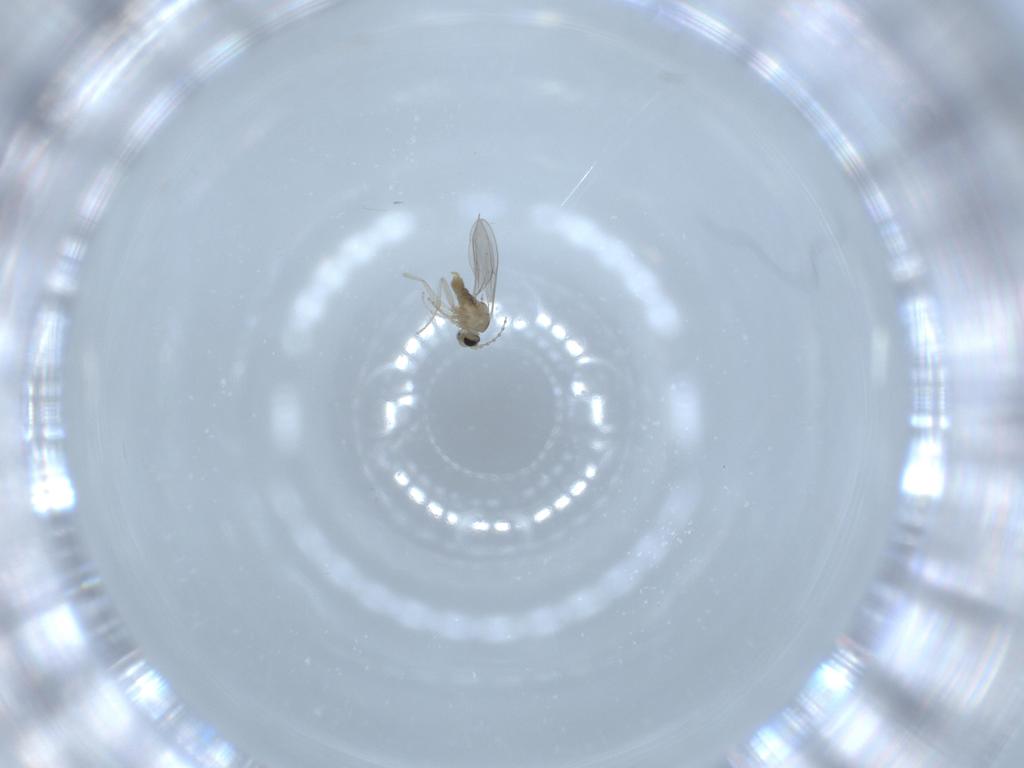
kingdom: Animalia
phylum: Arthropoda
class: Insecta
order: Diptera
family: Cecidomyiidae
